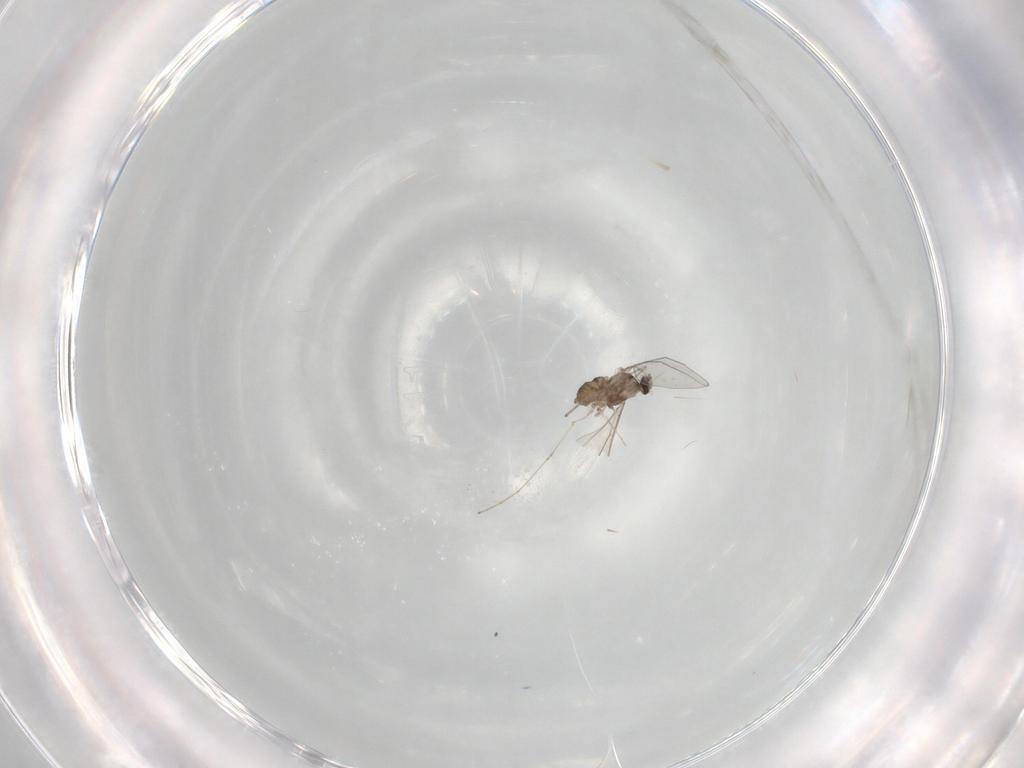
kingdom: Animalia
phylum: Arthropoda
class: Insecta
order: Diptera
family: Cecidomyiidae
